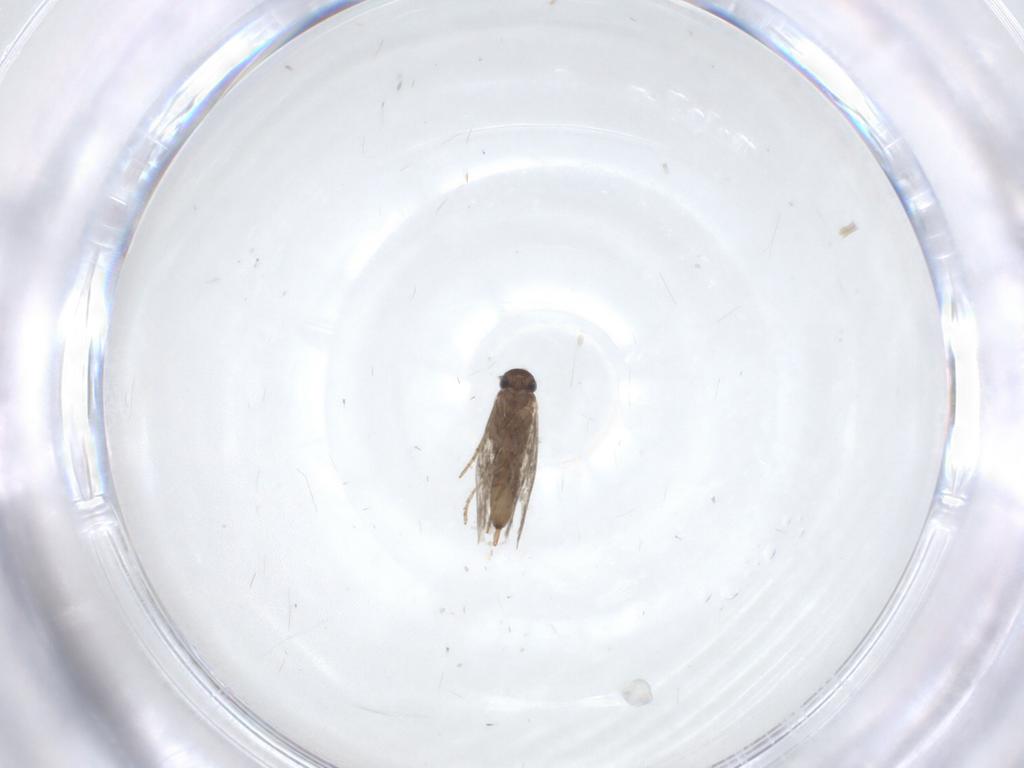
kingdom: Animalia
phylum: Arthropoda
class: Insecta
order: Lepidoptera
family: Heliozelidae
